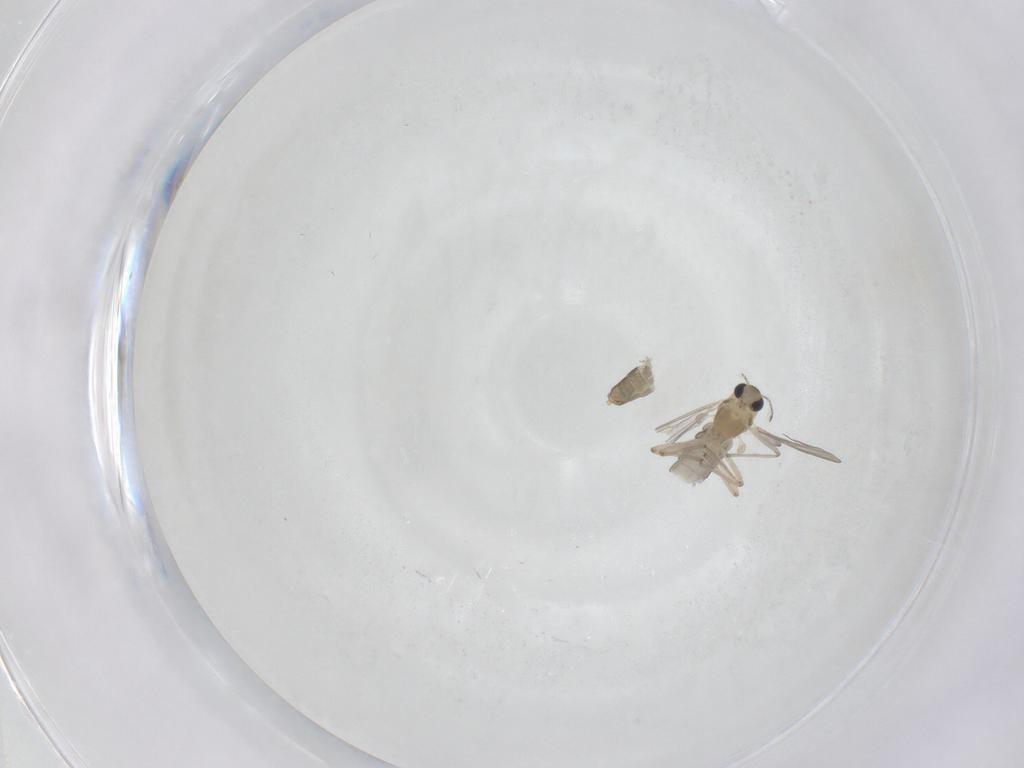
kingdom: Animalia
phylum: Arthropoda
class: Insecta
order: Diptera
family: Chironomidae
